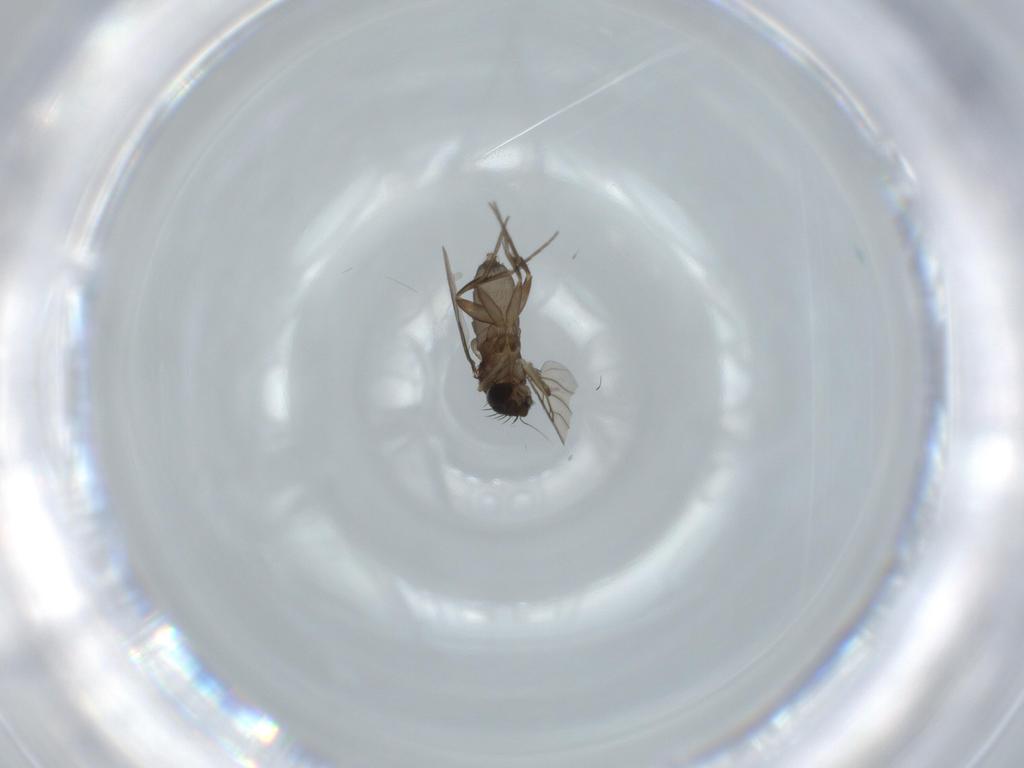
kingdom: Animalia
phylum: Arthropoda
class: Insecta
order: Diptera
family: Phoridae
